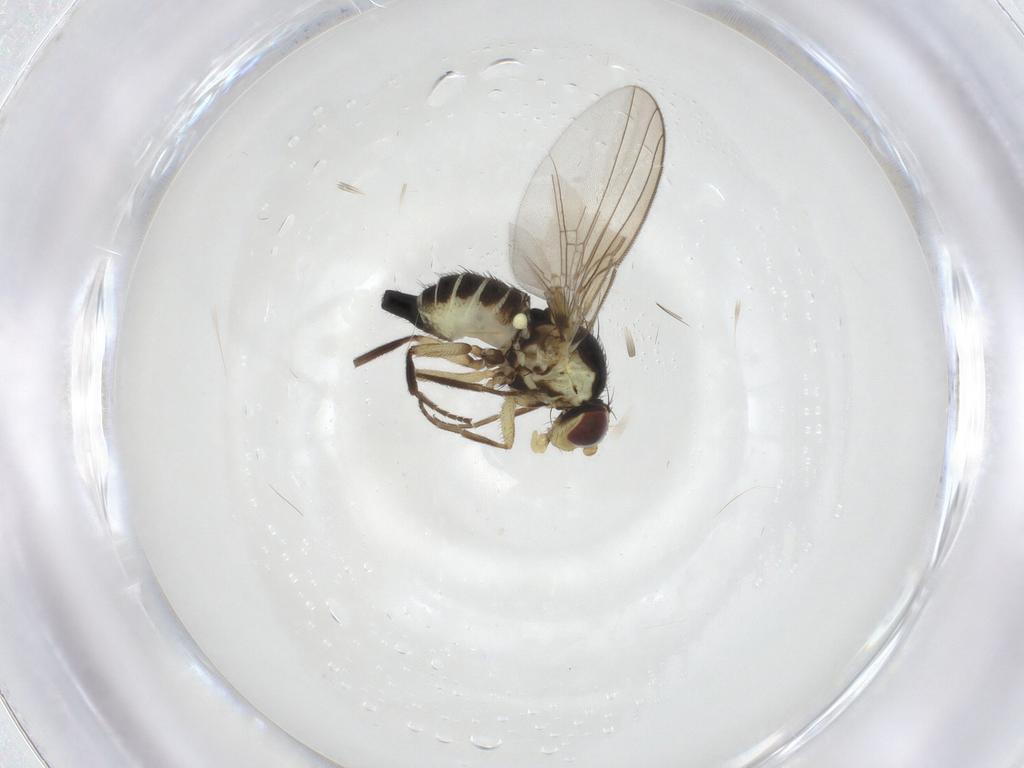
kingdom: Animalia
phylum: Arthropoda
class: Insecta
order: Diptera
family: Agromyzidae
